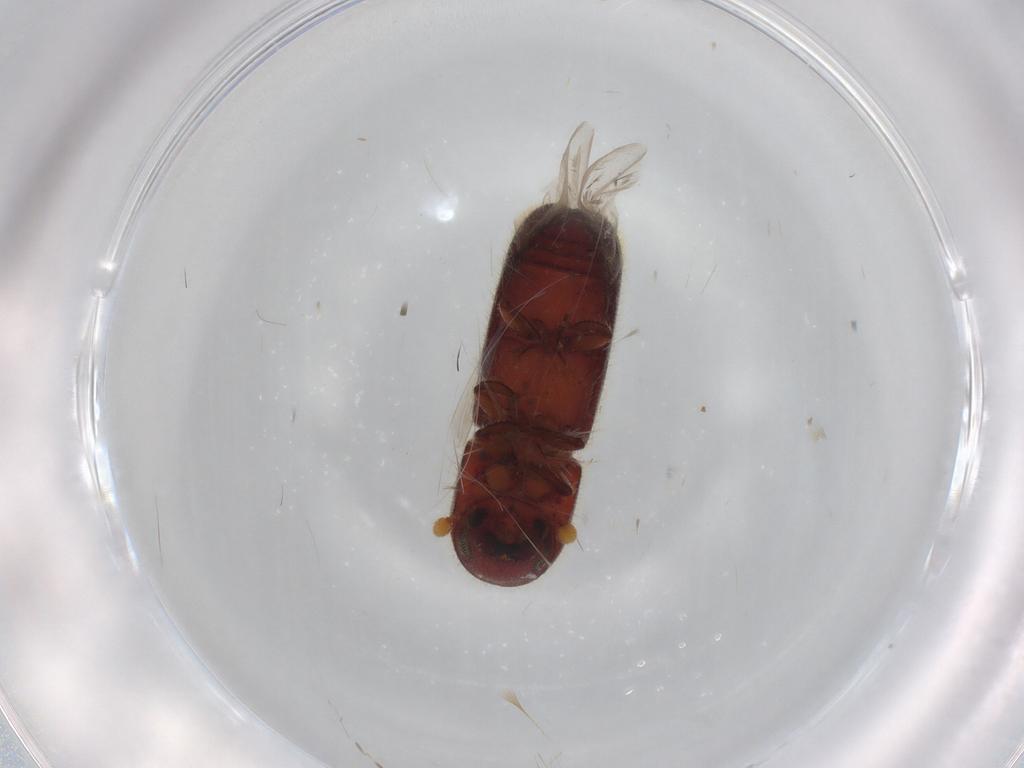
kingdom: Animalia
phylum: Arthropoda
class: Insecta
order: Coleoptera
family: Curculionidae
